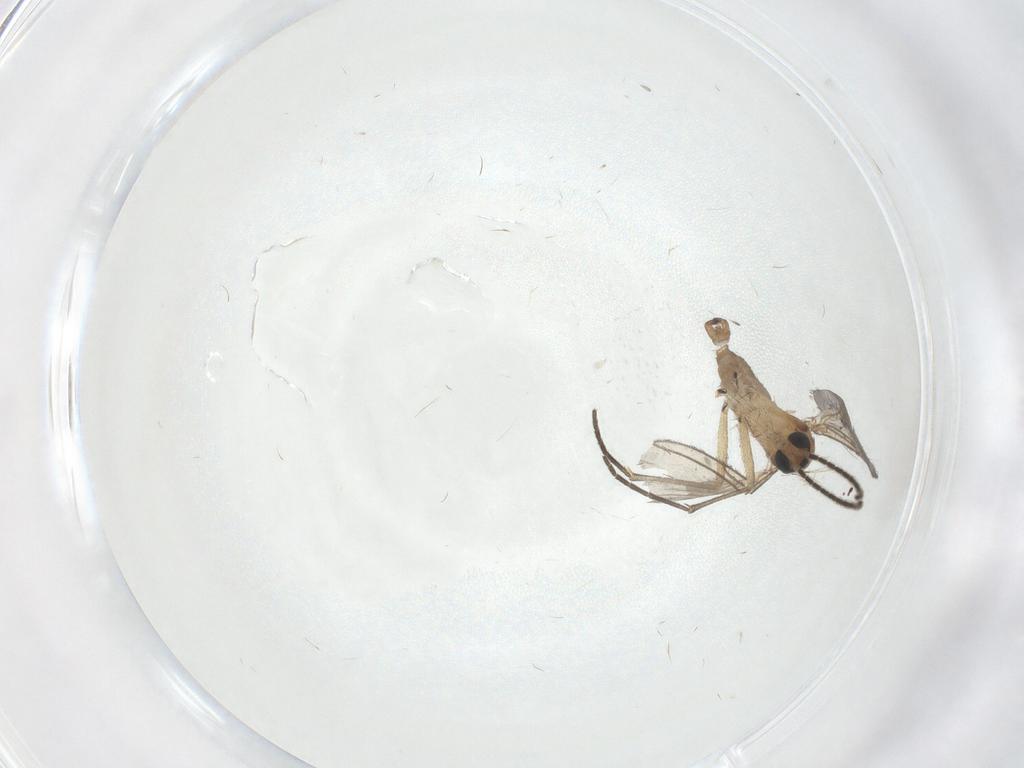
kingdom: Animalia
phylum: Arthropoda
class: Insecta
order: Diptera
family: Sciaridae
